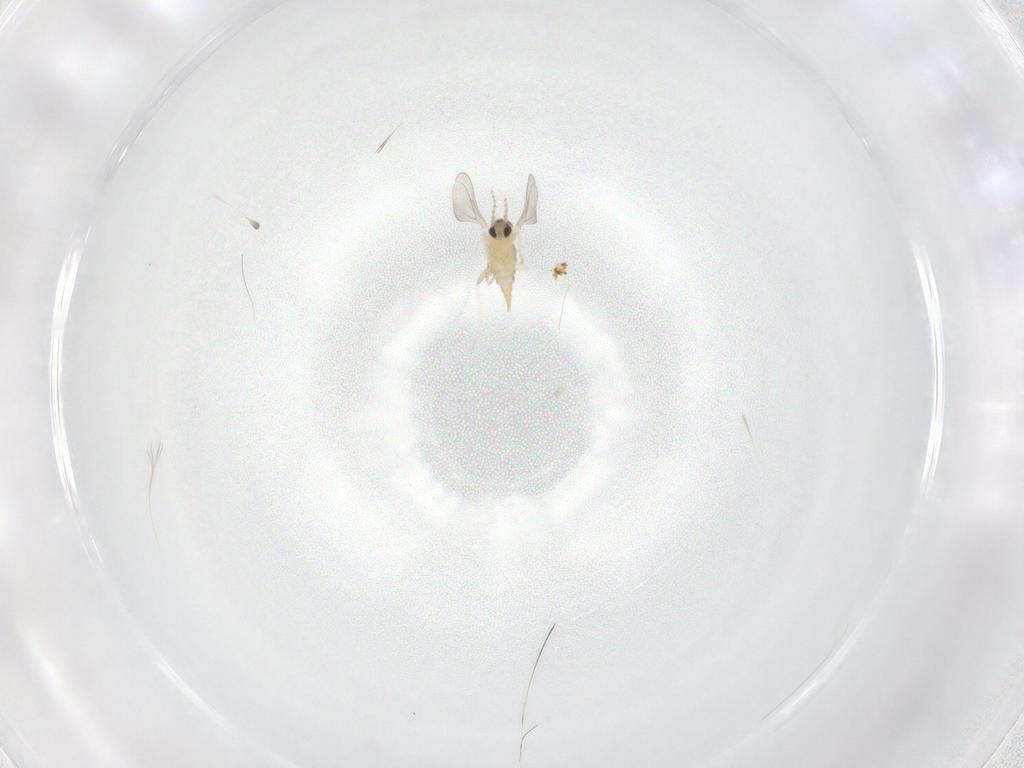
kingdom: Animalia
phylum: Arthropoda
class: Insecta
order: Diptera
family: Cecidomyiidae
